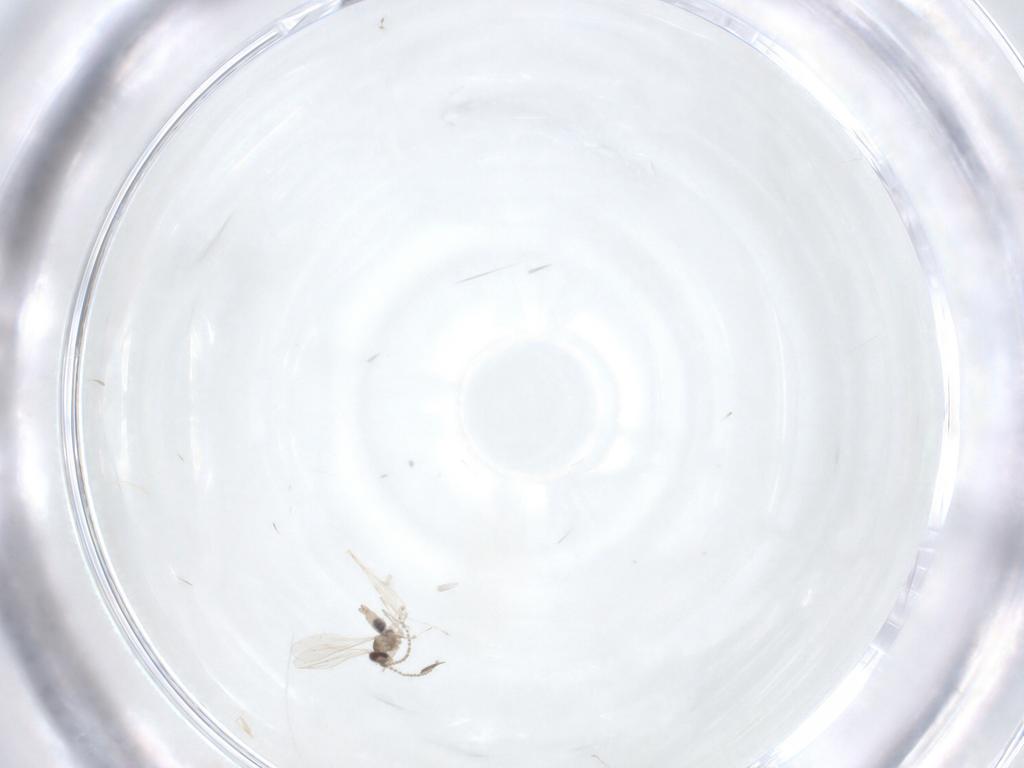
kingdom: Animalia
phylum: Arthropoda
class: Insecta
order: Diptera
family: Cecidomyiidae
